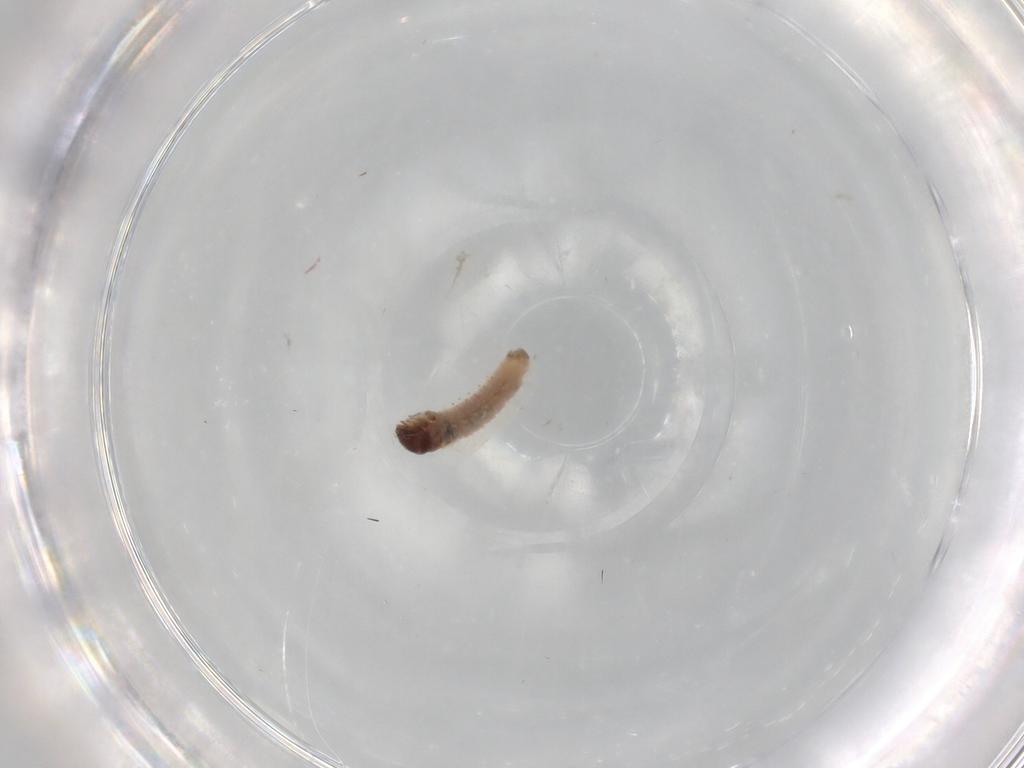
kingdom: Animalia
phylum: Arthropoda
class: Insecta
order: Lepidoptera
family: Psychidae
